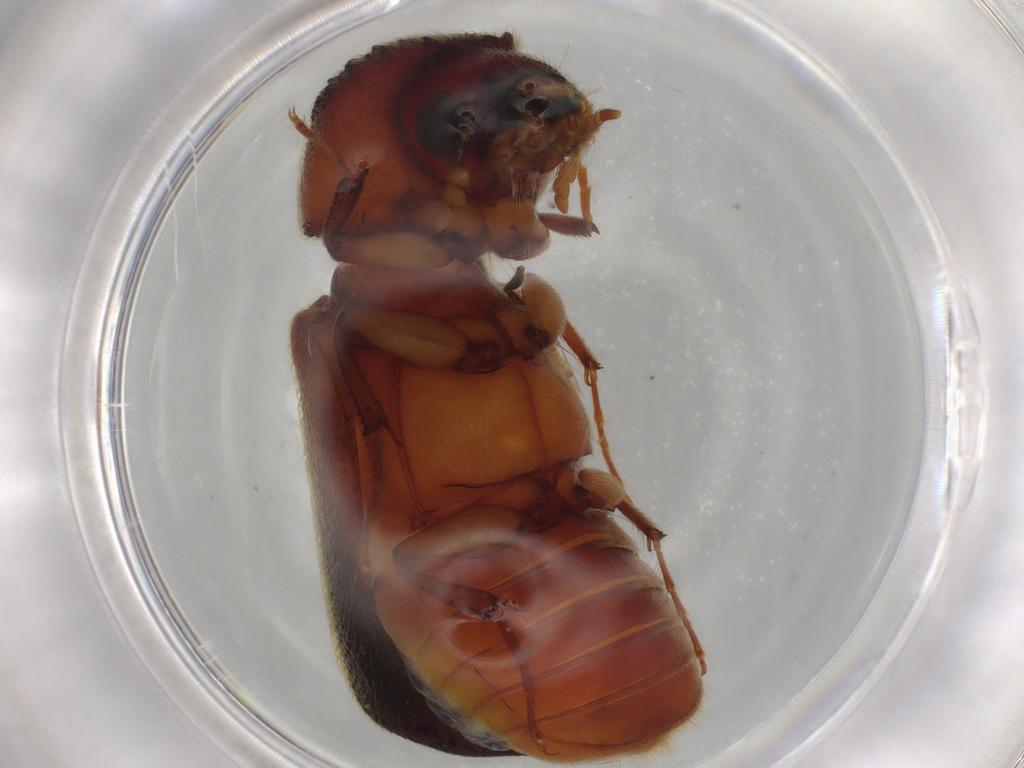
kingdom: Animalia
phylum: Arthropoda
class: Insecta
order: Coleoptera
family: Bostrichidae
